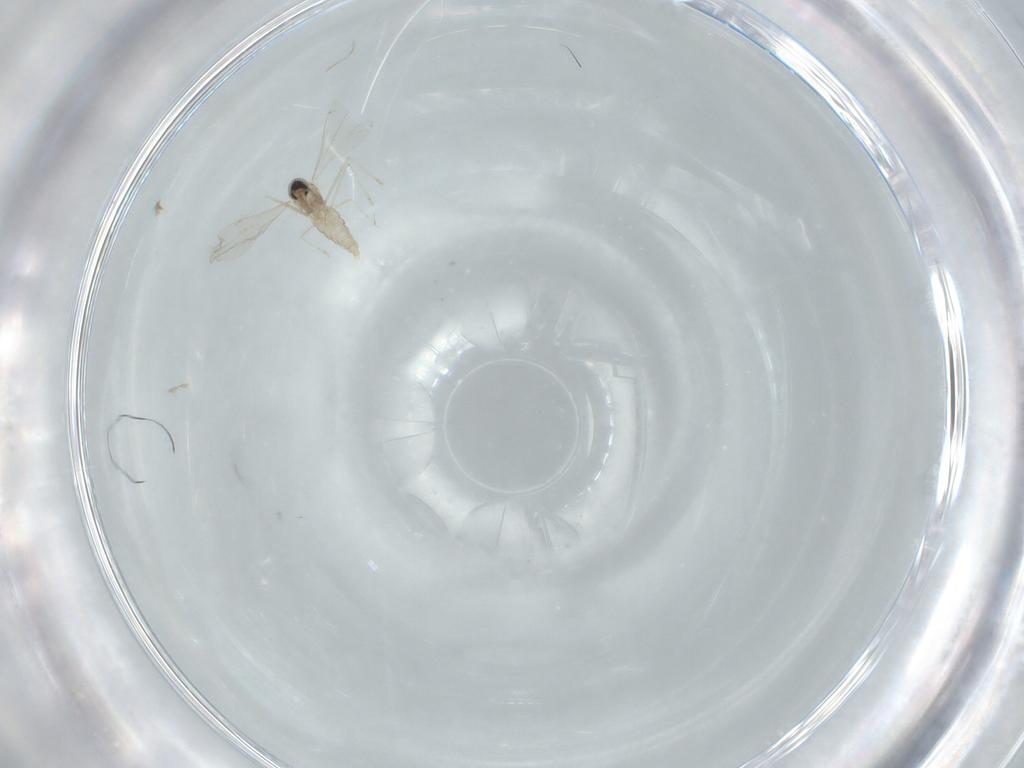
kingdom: Animalia
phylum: Arthropoda
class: Insecta
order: Diptera
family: Cecidomyiidae
